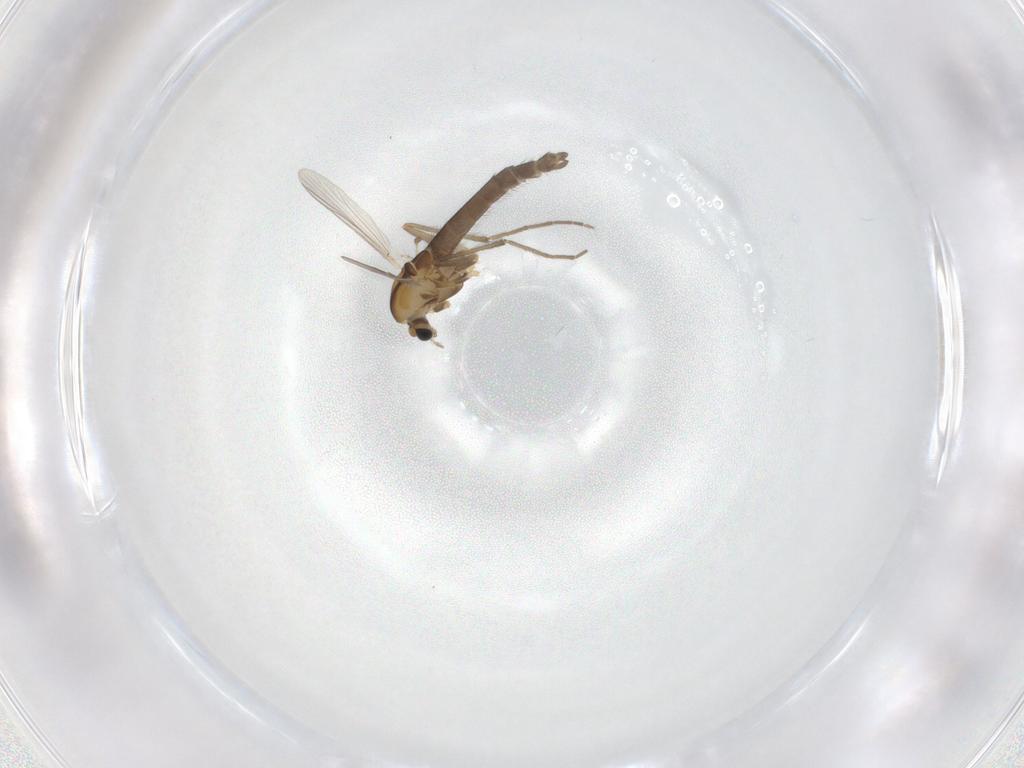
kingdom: Animalia
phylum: Arthropoda
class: Insecta
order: Diptera
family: Chironomidae
